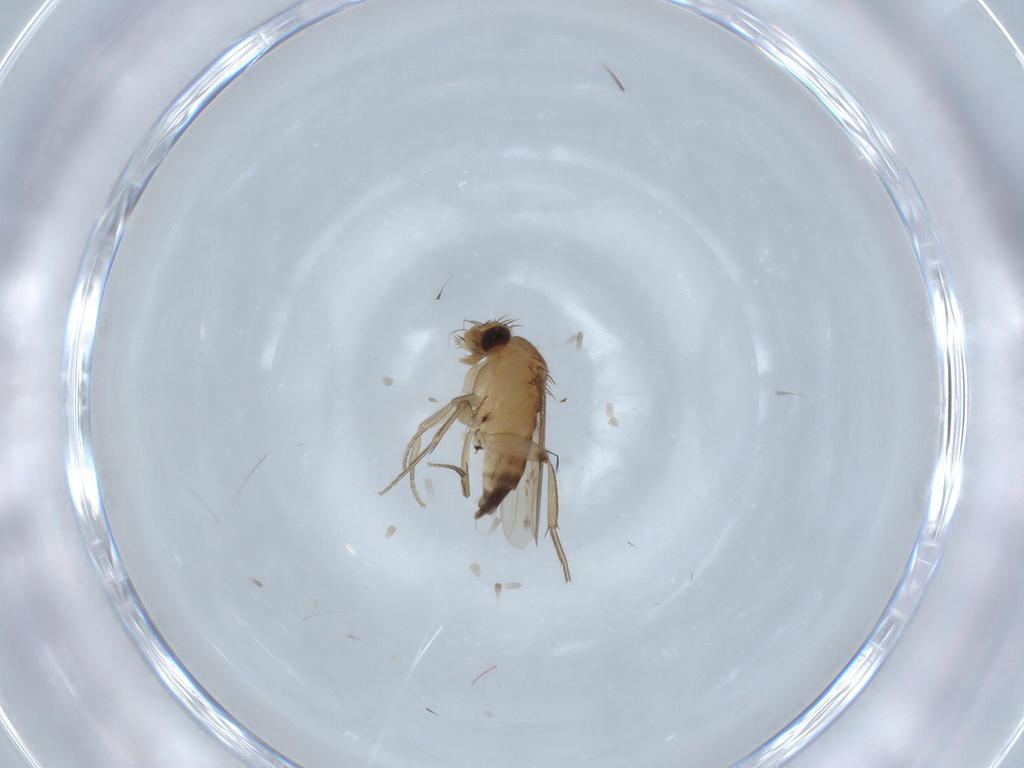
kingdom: Animalia
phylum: Arthropoda
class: Insecta
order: Diptera
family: Phoridae
